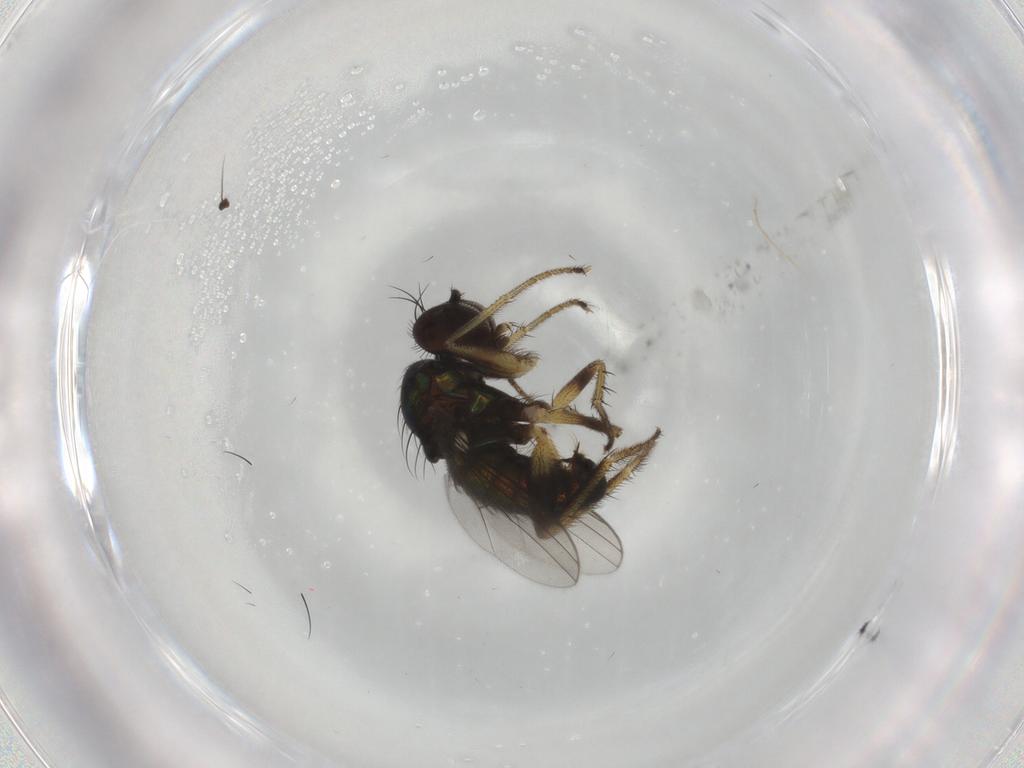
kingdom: Animalia
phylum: Arthropoda
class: Insecta
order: Diptera
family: Dolichopodidae
